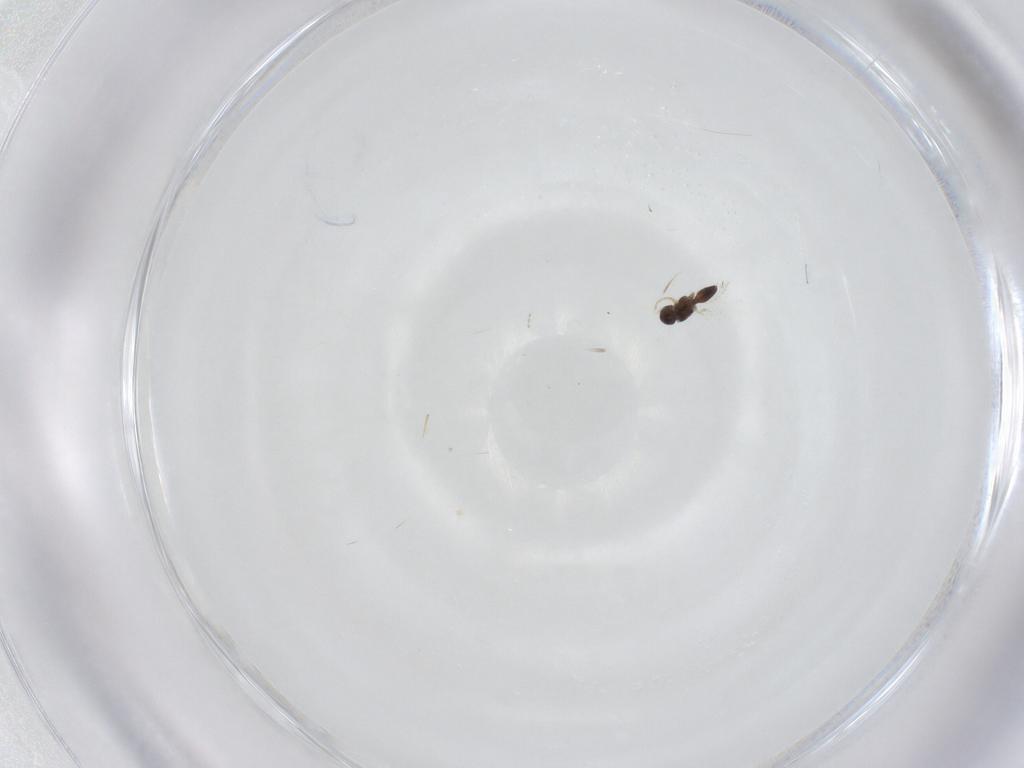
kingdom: Animalia
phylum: Arthropoda
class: Insecta
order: Hymenoptera
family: Scelionidae
